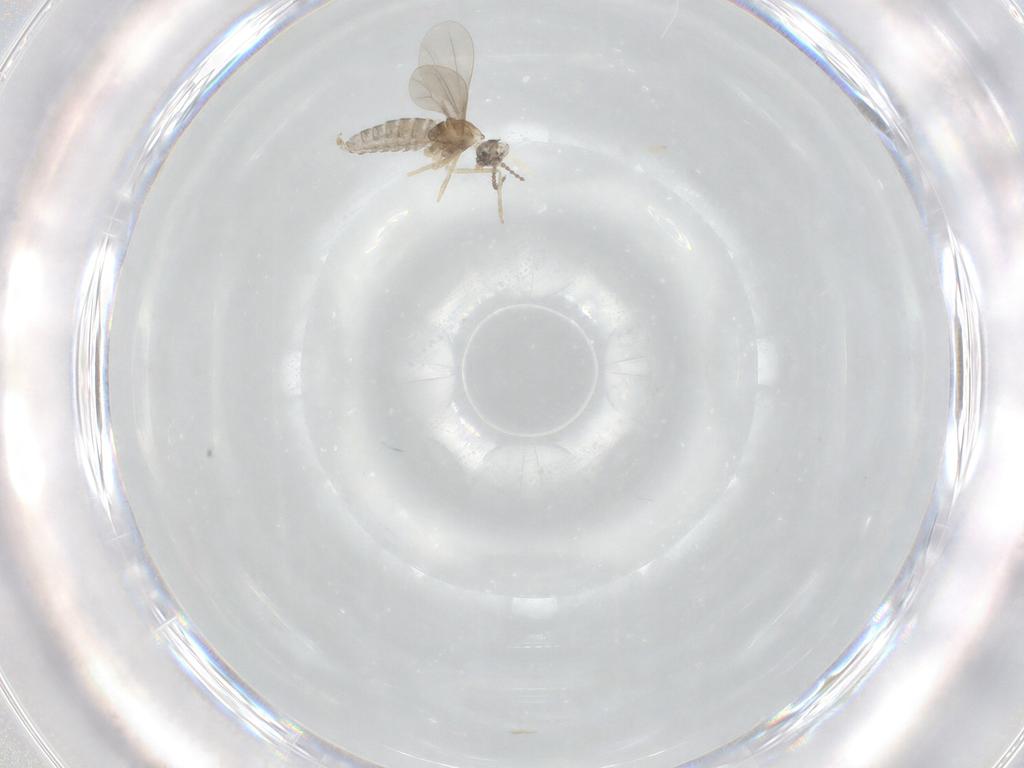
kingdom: Animalia
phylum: Arthropoda
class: Insecta
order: Diptera
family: Cecidomyiidae
